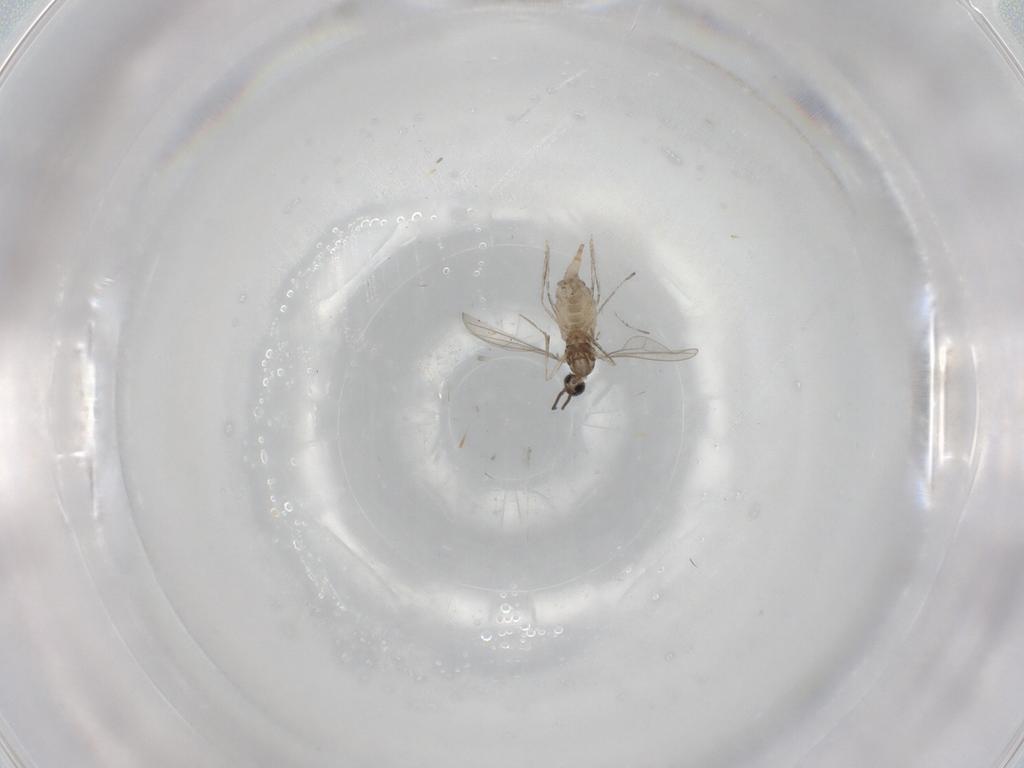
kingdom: Animalia
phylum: Arthropoda
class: Insecta
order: Diptera
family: Cecidomyiidae
